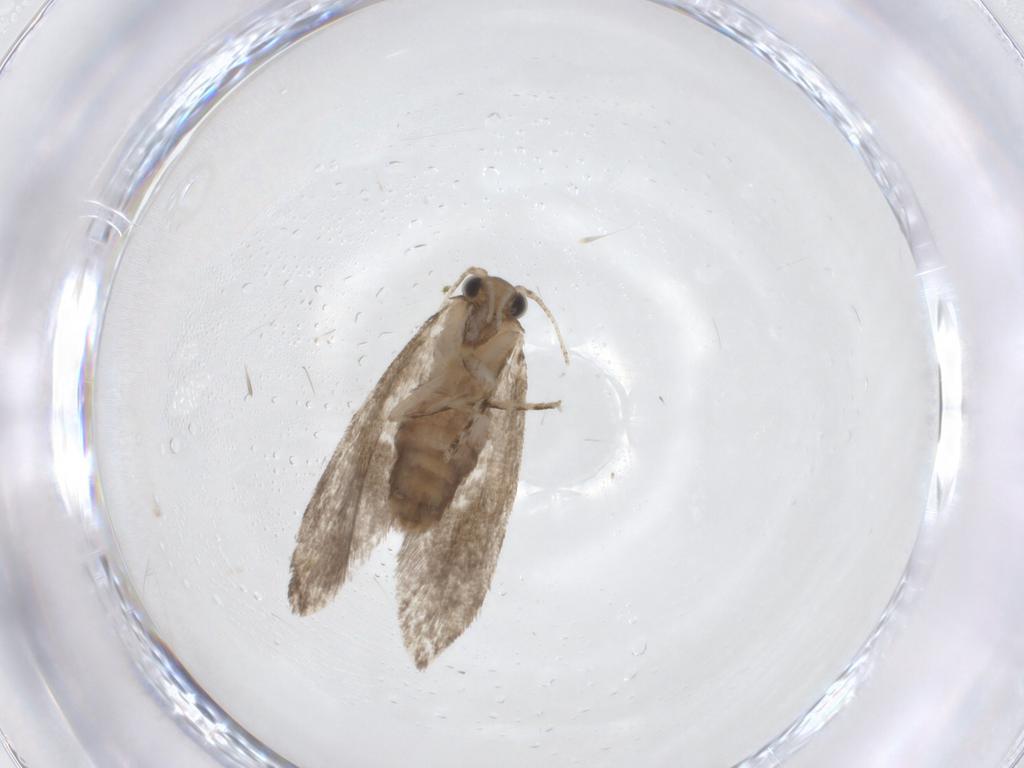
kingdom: Animalia
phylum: Arthropoda
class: Insecta
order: Lepidoptera
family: Tineidae
